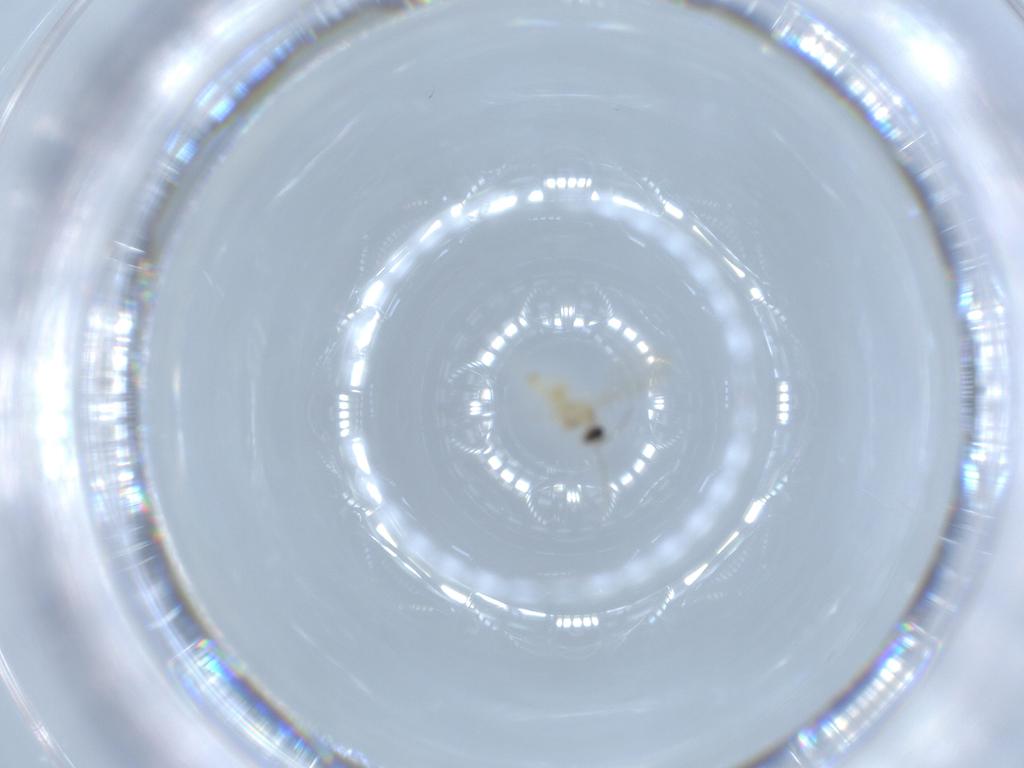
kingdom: Animalia
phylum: Arthropoda
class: Insecta
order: Diptera
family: Cecidomyiidae
